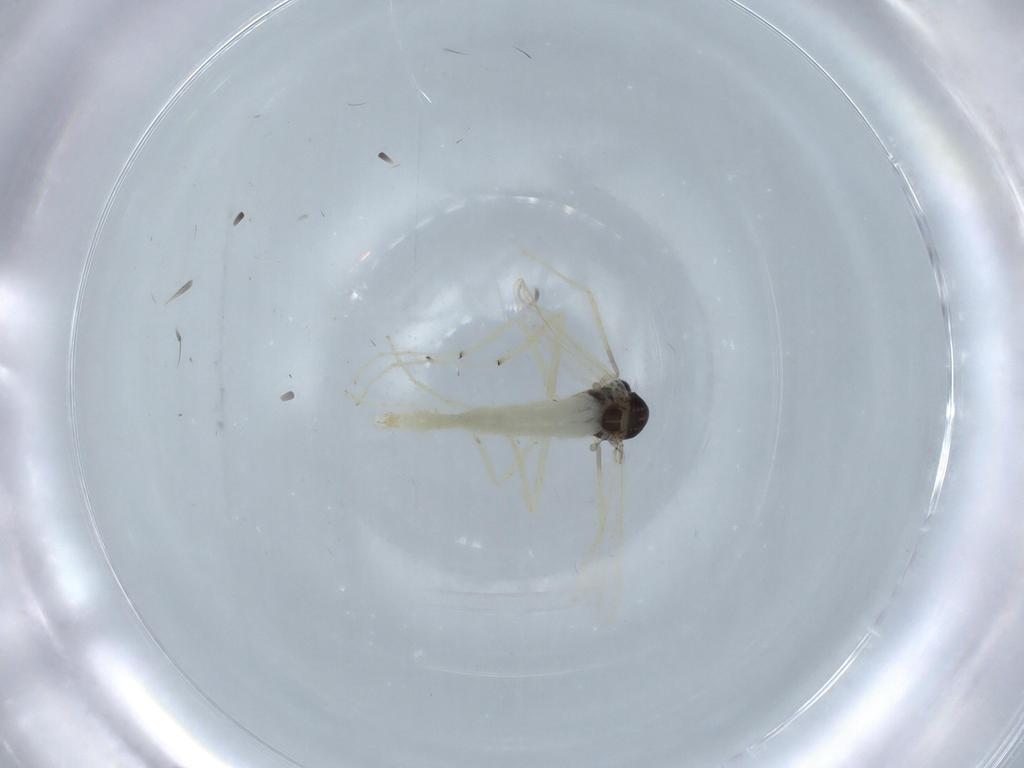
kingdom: Animalia
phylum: Arthropoda
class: Insecta
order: Diptera
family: Chironomidae
